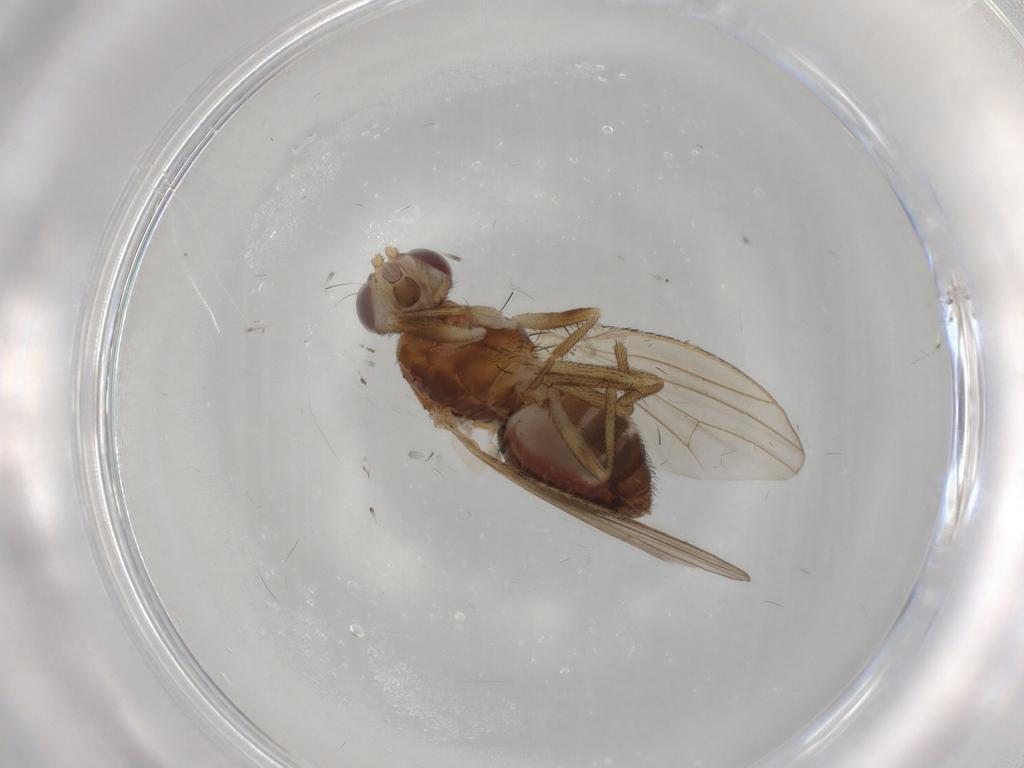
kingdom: Animalia
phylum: Arthropoda
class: Insecta
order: Diptera
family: Heleomyzidae
